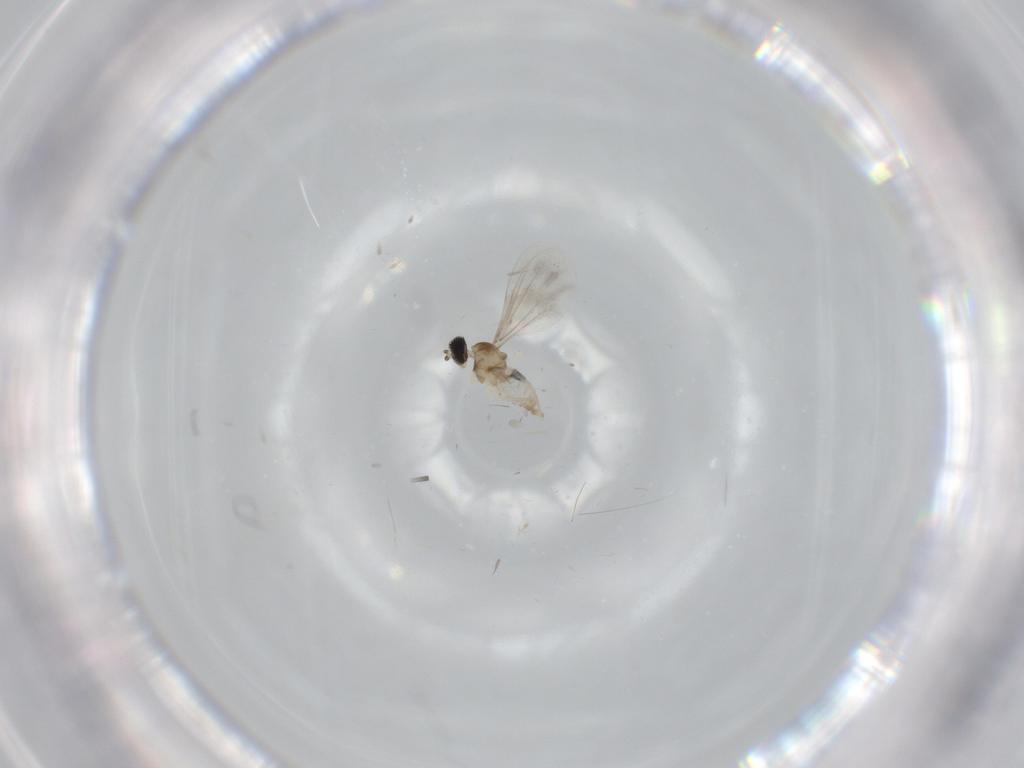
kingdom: Animalia
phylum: Arthropoda
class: Insecta
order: Diptera
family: Cecidomyiidae
